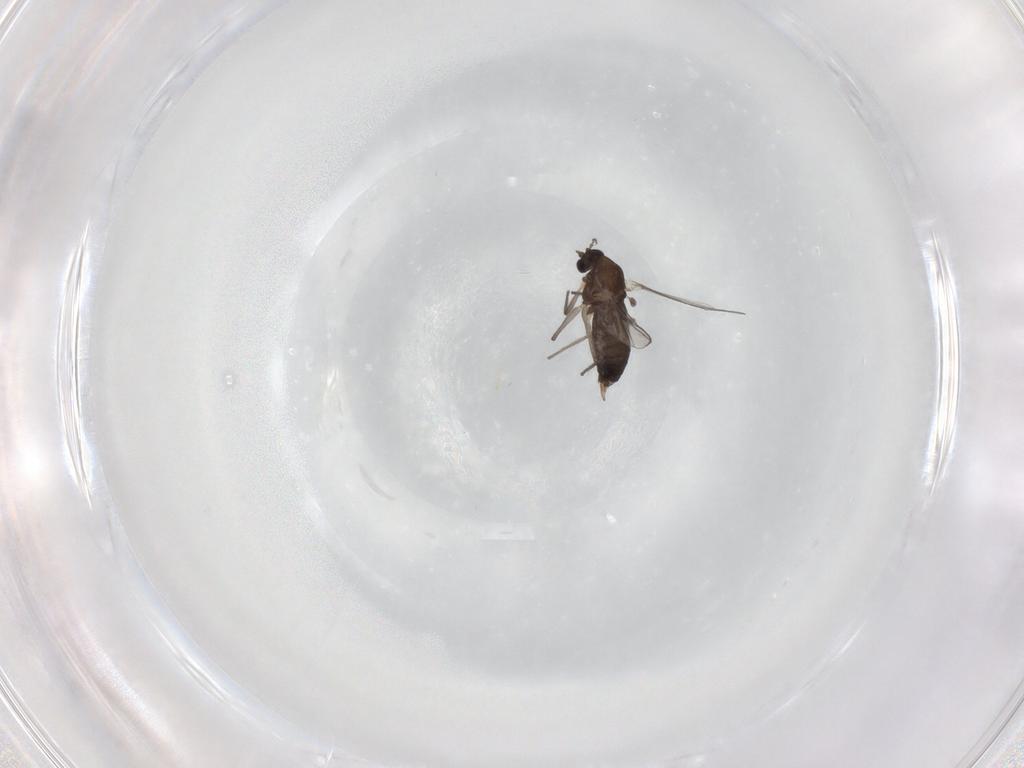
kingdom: Animalia
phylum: Arthropoda
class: Insecta
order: Diptera
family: Chironomidae
